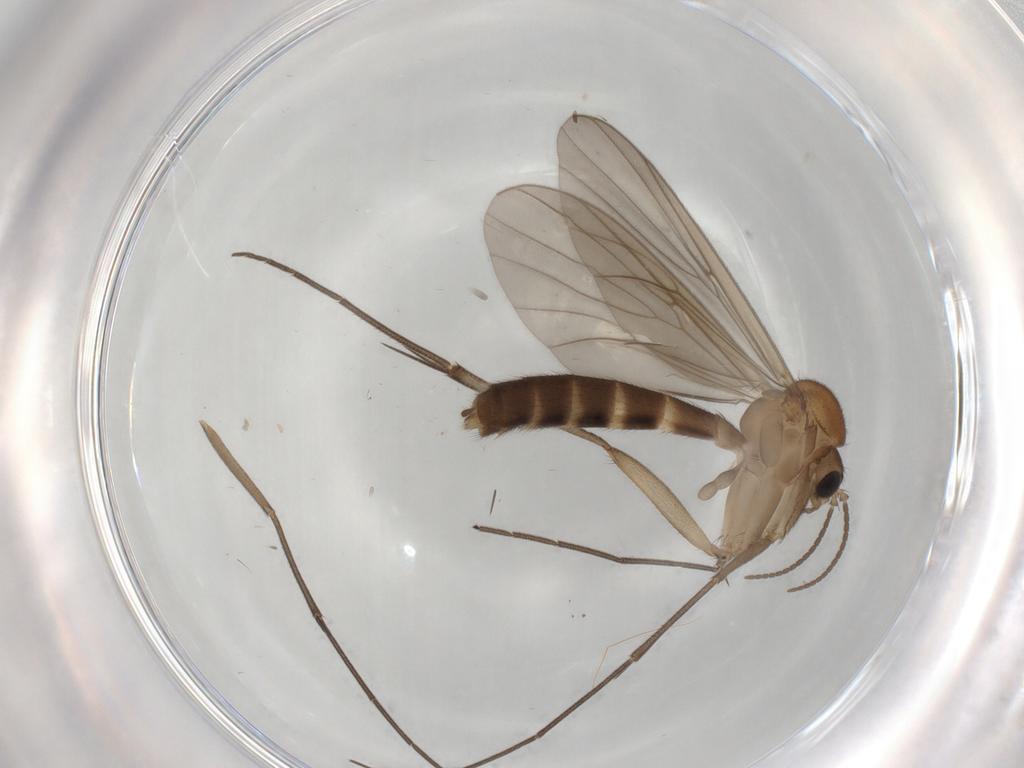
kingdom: Animalia
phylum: Arthropoda
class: Insecta
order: Diptera
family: Mycetophilidae
